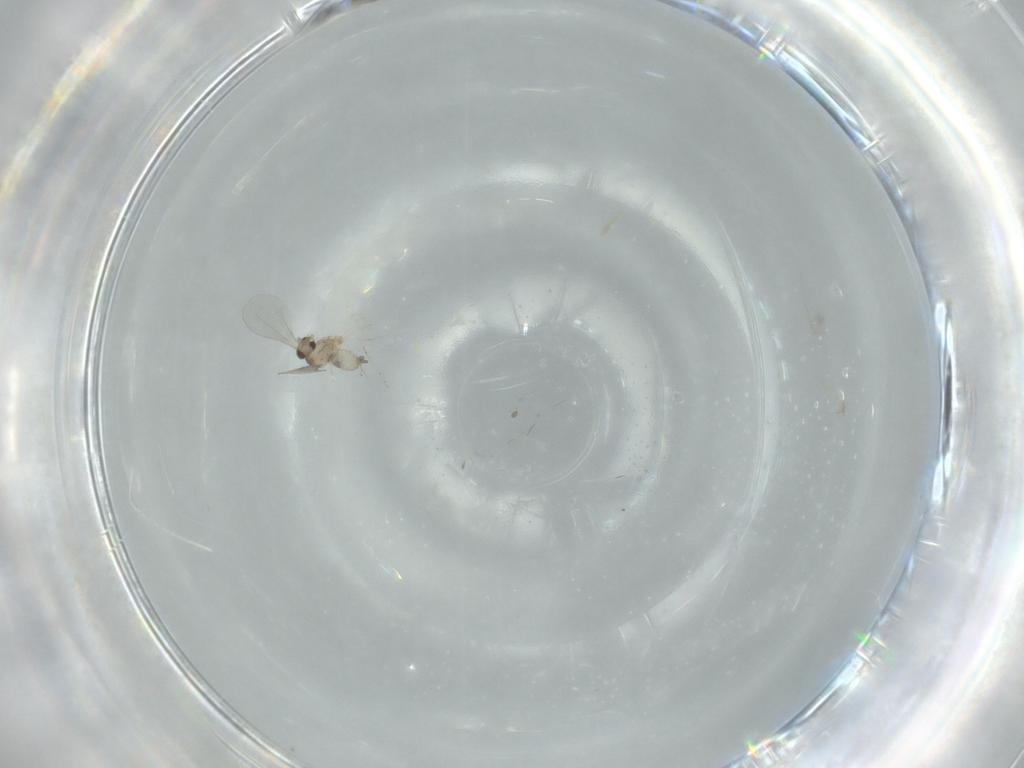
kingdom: Animalia
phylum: Arthropoda
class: Insecta
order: Diptera
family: Cecidomyiidae
